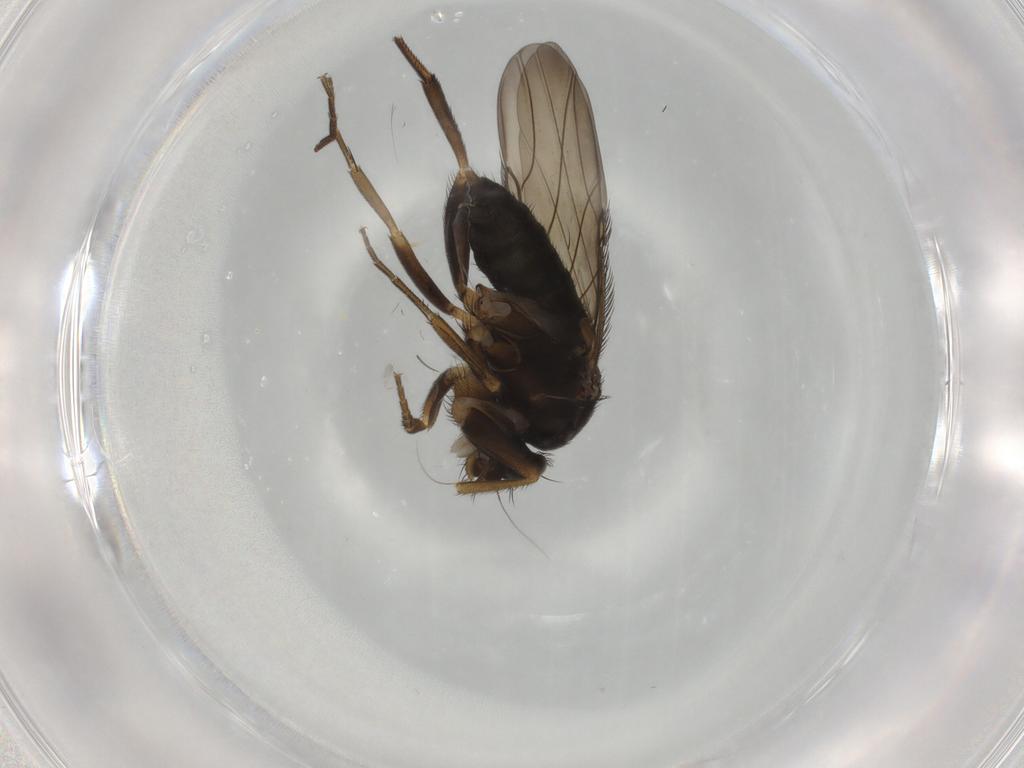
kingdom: Animalia
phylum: Arthropoda
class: Insecta
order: Diptera
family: Phoridae
